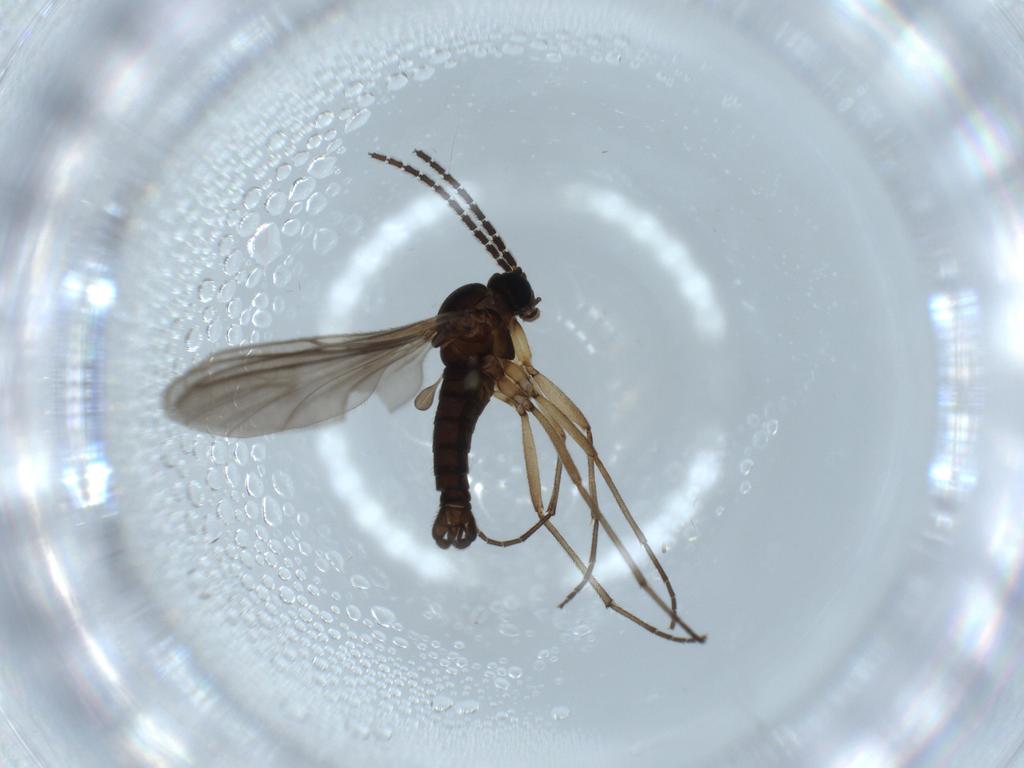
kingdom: Animalia
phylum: Arthropoda
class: Insecta
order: Diptera
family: Sciaridae
